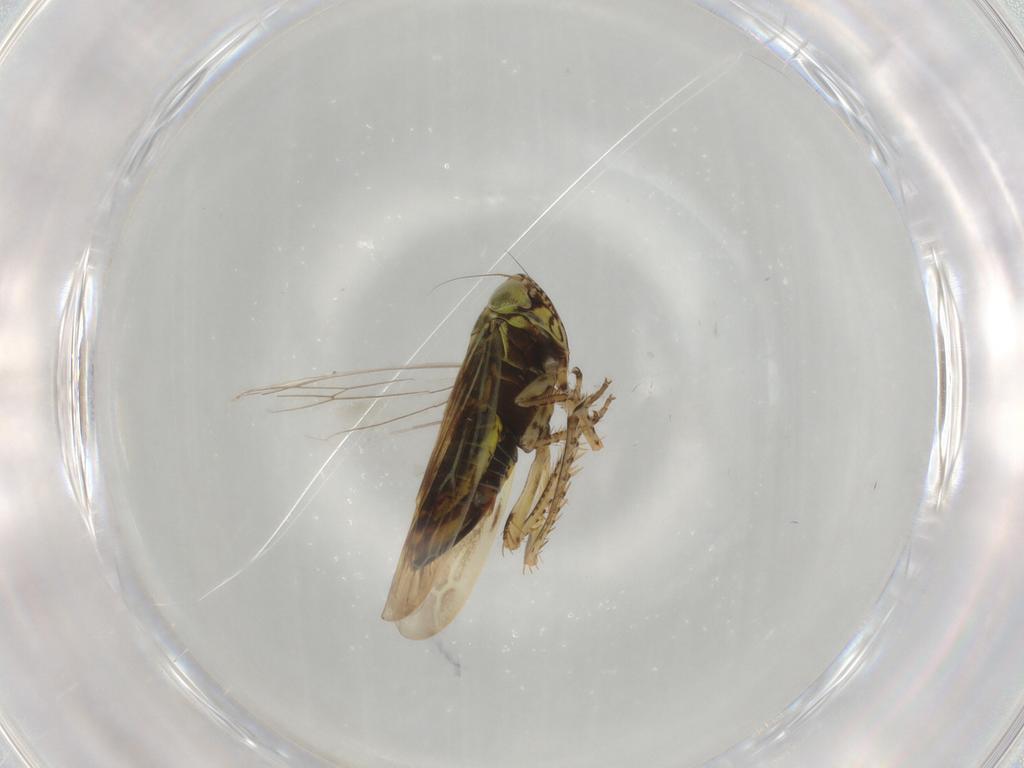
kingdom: Animalia
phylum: Arthropoda
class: Insecta
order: Hemiptera
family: Cicadellidae
